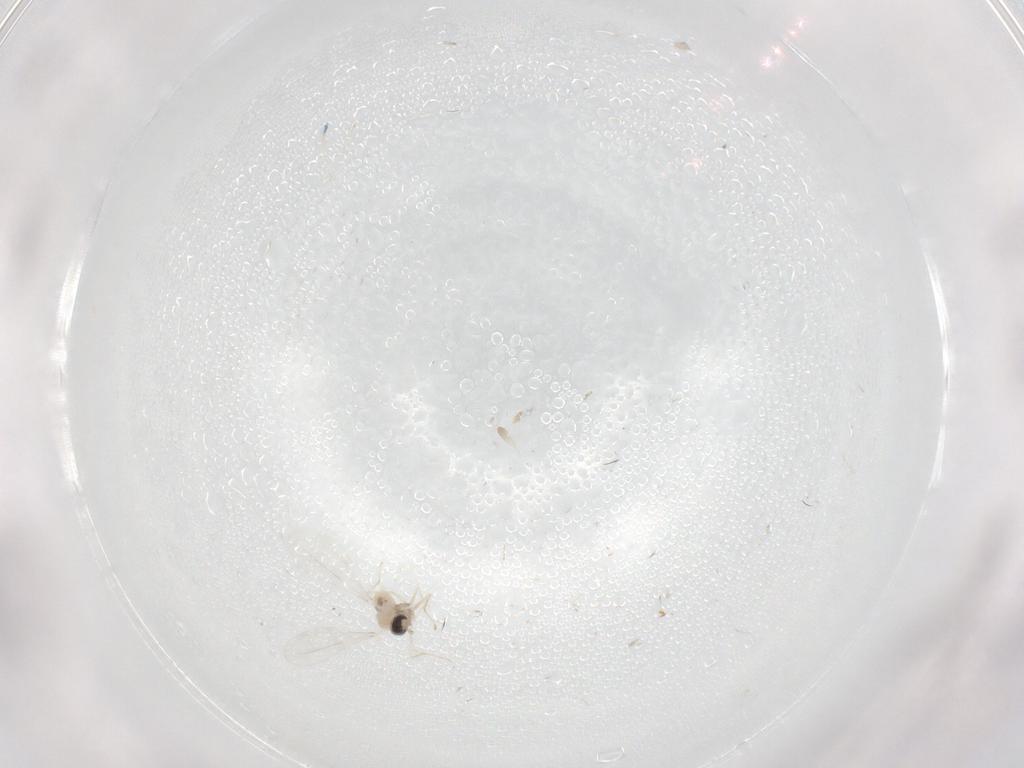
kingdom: Animalia
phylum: Arthropoda
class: Insecta
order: Diptera
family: Cecidomyiidae
